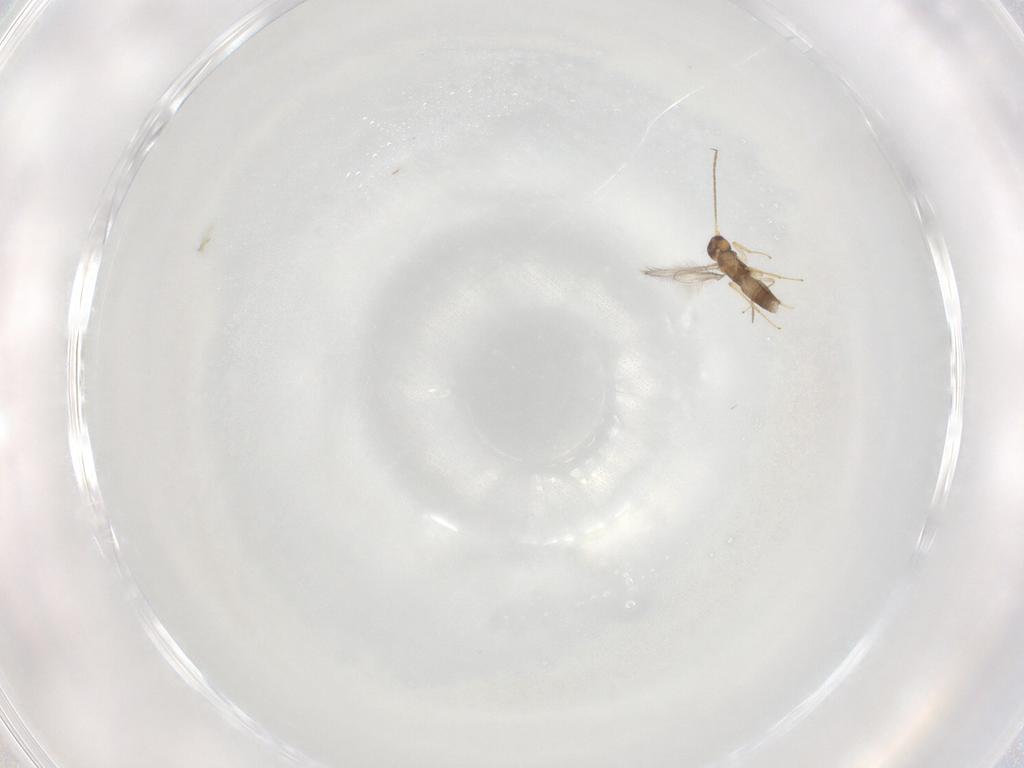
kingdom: Animalia
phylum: Arthropoda
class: Insecta
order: Hymenoptera
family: Mymaridae
